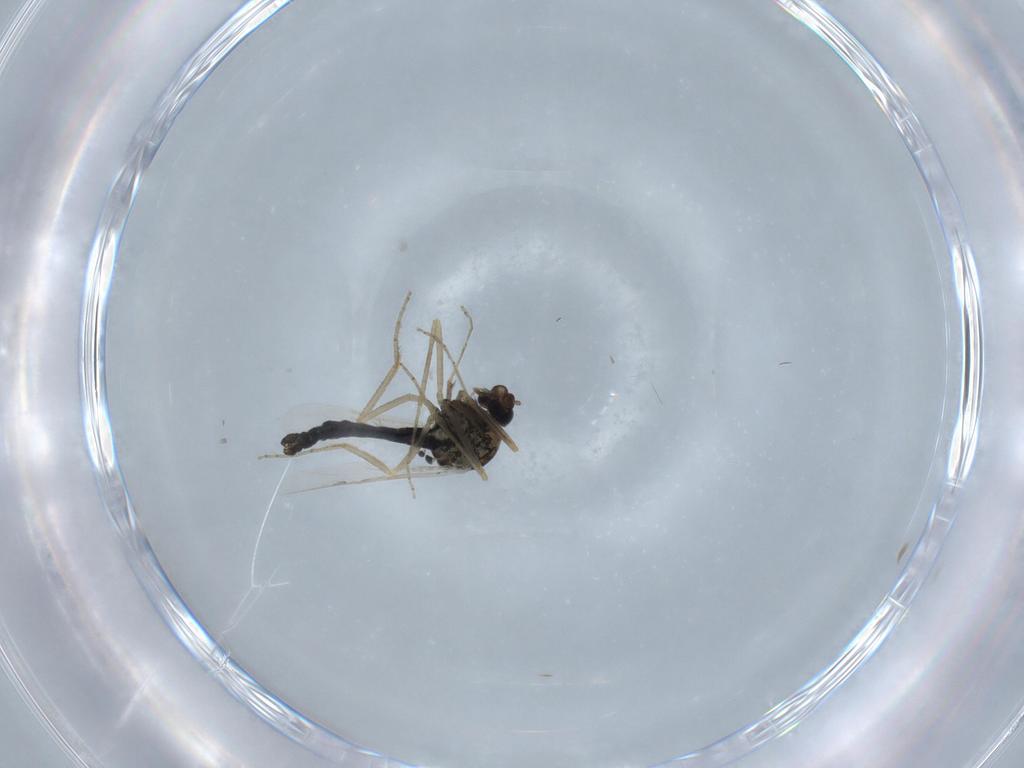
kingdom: Animalia
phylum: Arthropoda
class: Insecta
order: Diptera
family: Ceratopogonidae
